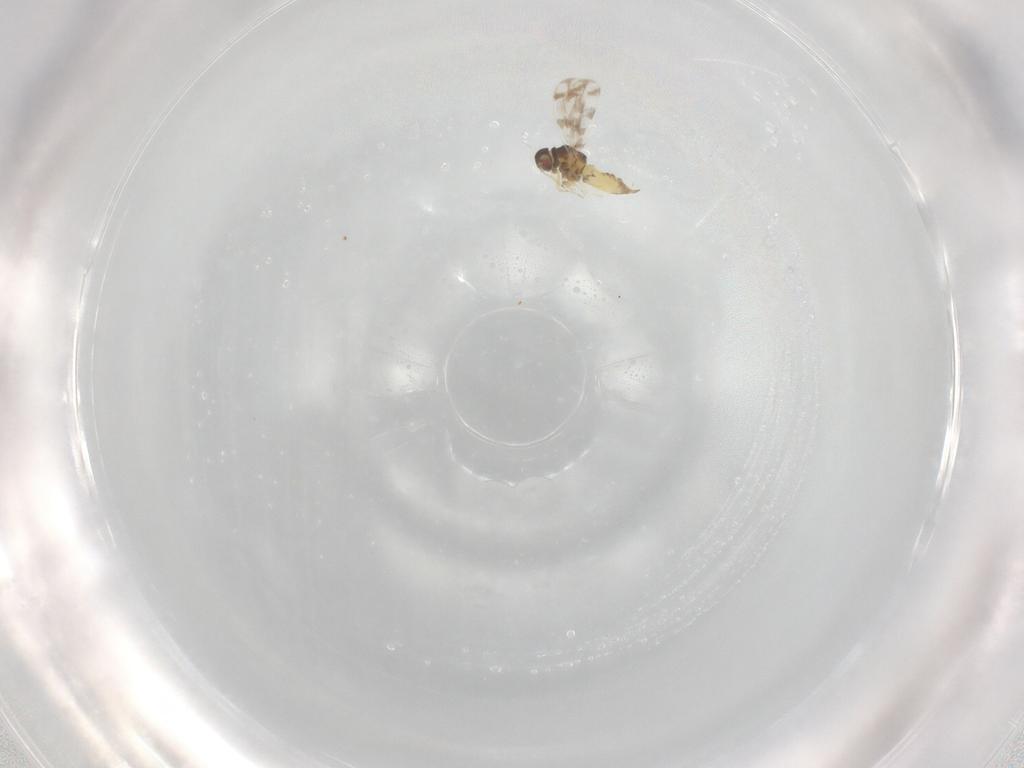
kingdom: Animalia
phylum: Arthropoda
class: Insecta
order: Hemiptera
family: Aleyrodidae
